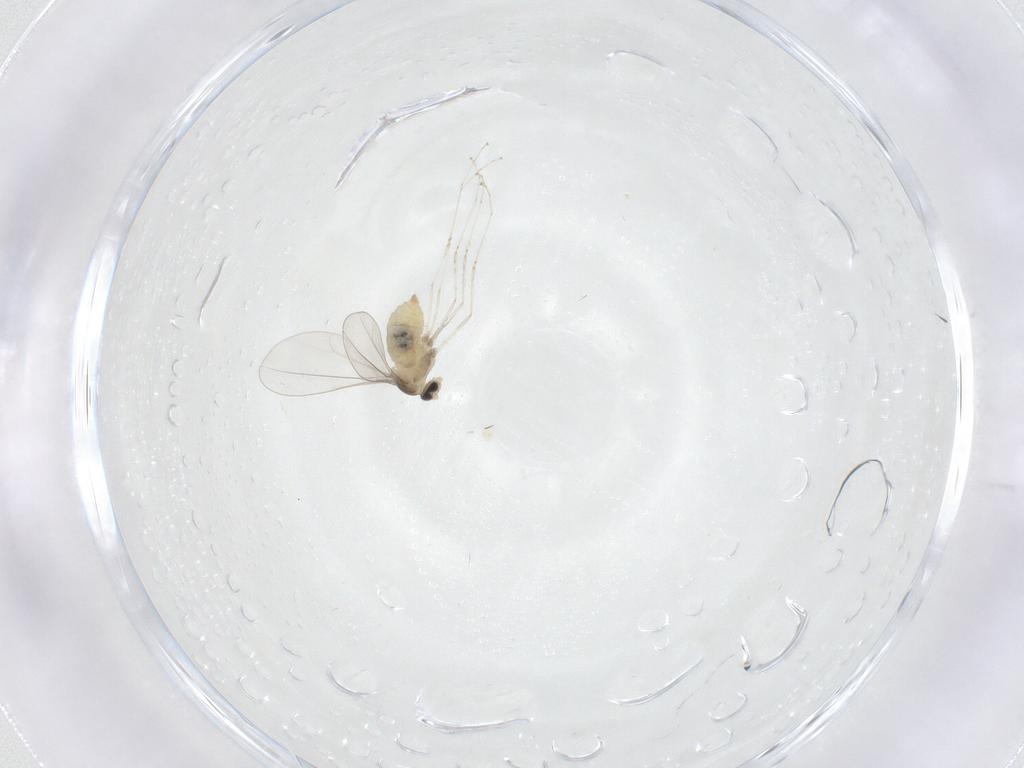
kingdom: Animalia
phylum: Arthropoda
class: Insecta
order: Diptera
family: Cecidomyiidae
